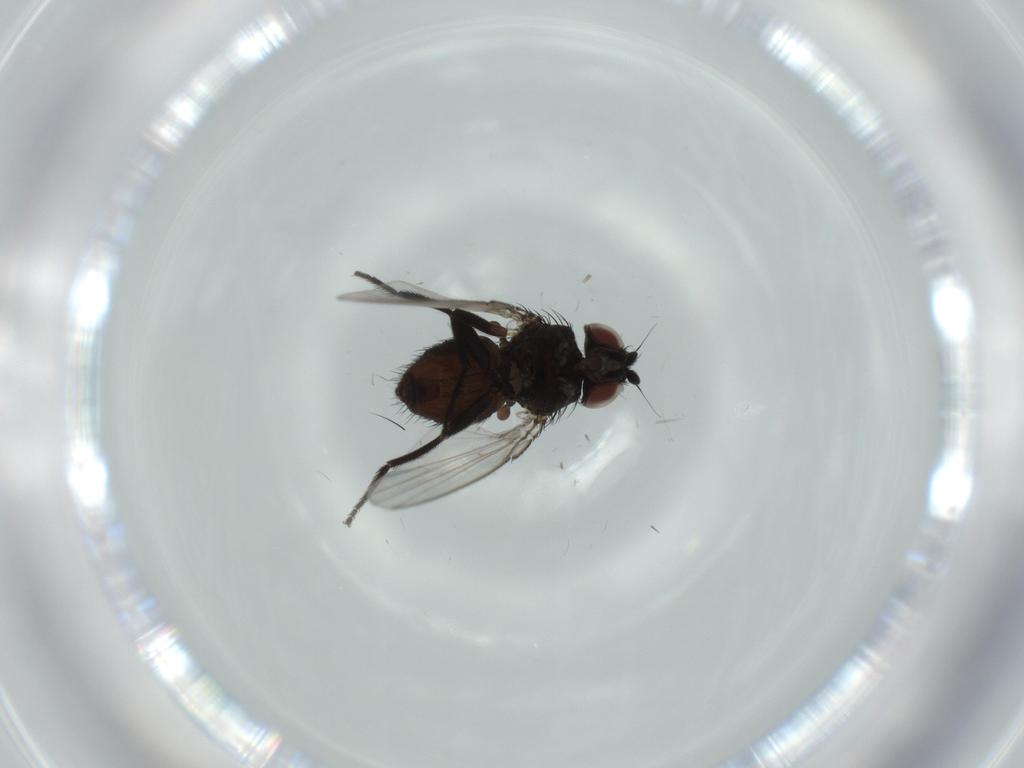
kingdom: Animalia
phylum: Arthropoda
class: Insecta
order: Diptera
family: Milichiidae
